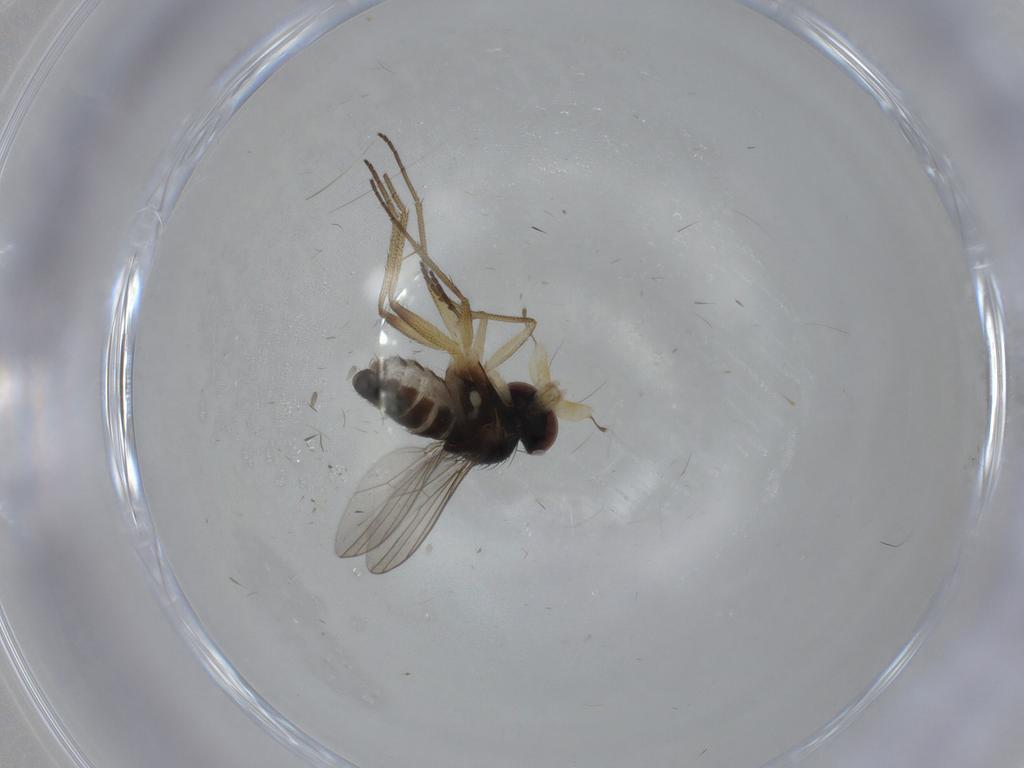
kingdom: Animalia
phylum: Arthropoda
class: Insecta
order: Diptera
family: Dolichopodidae
